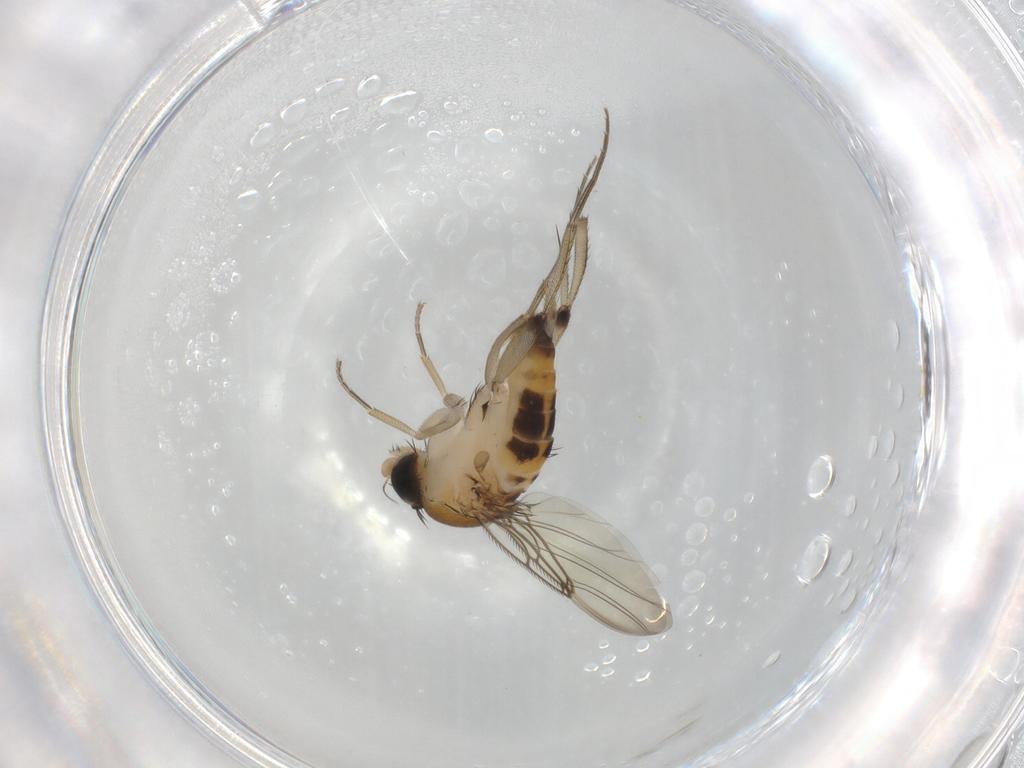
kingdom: Animalia
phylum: Arthropoda
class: Insecta
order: Diptera
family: Phoridae
